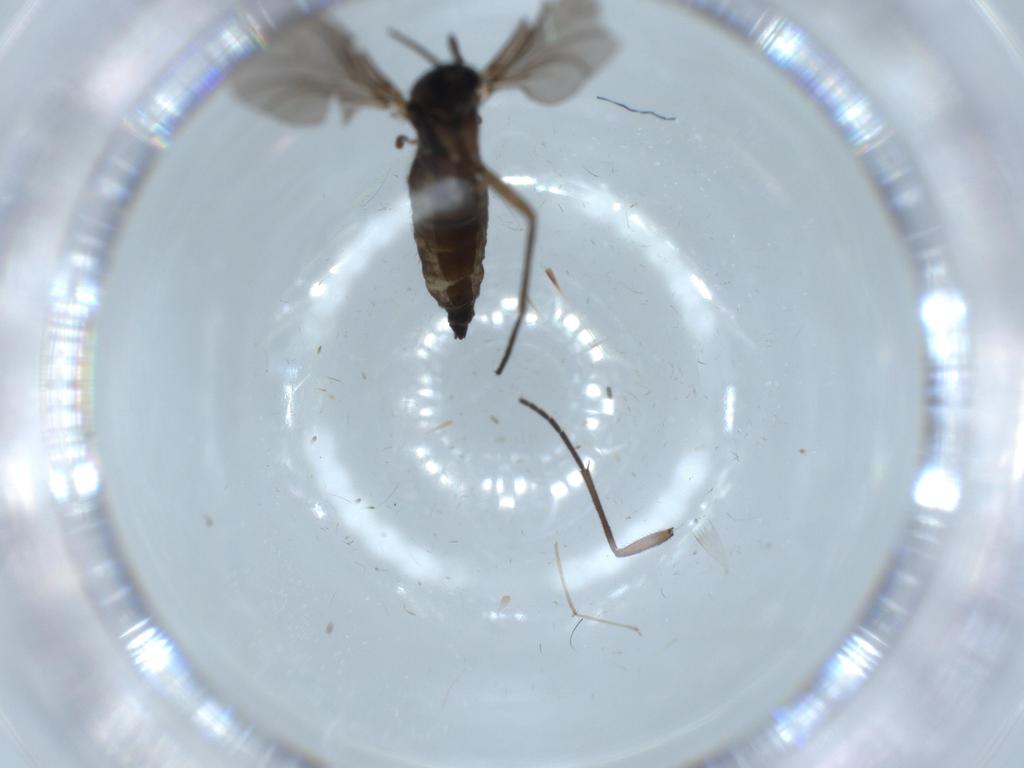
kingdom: Animalia
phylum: Arthropoda
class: Insecta
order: Diptera
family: Sciaridae
